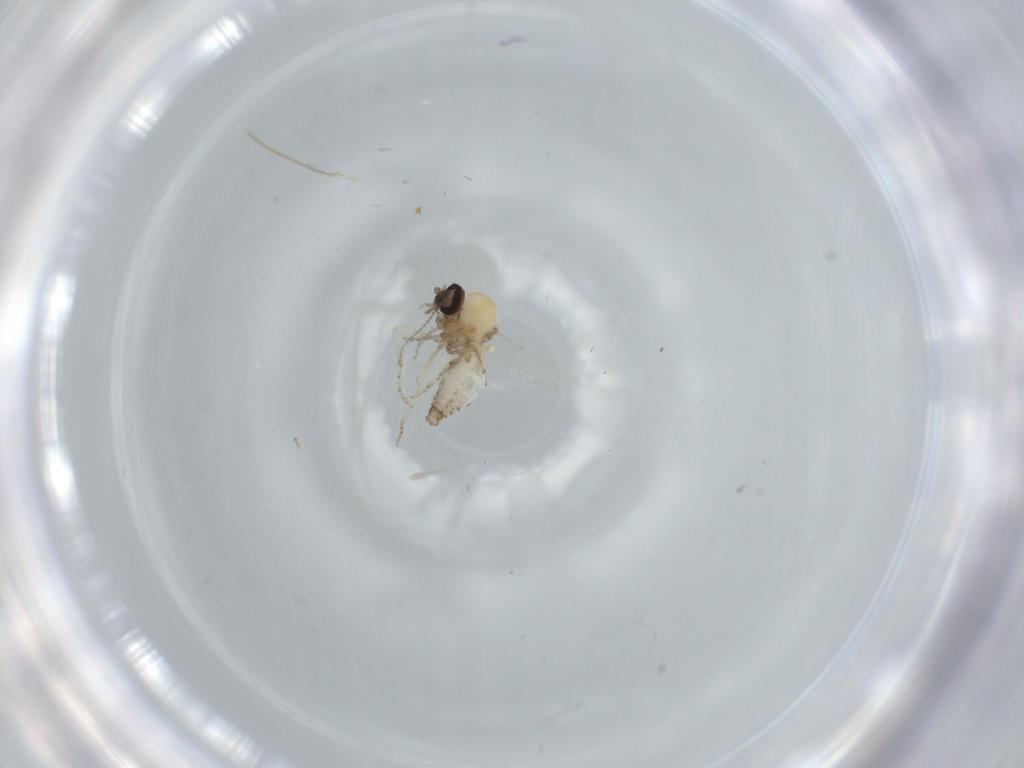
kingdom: Animalia
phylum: Arthropoda
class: Insecta
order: Diptera
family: Ceratopogonidae
